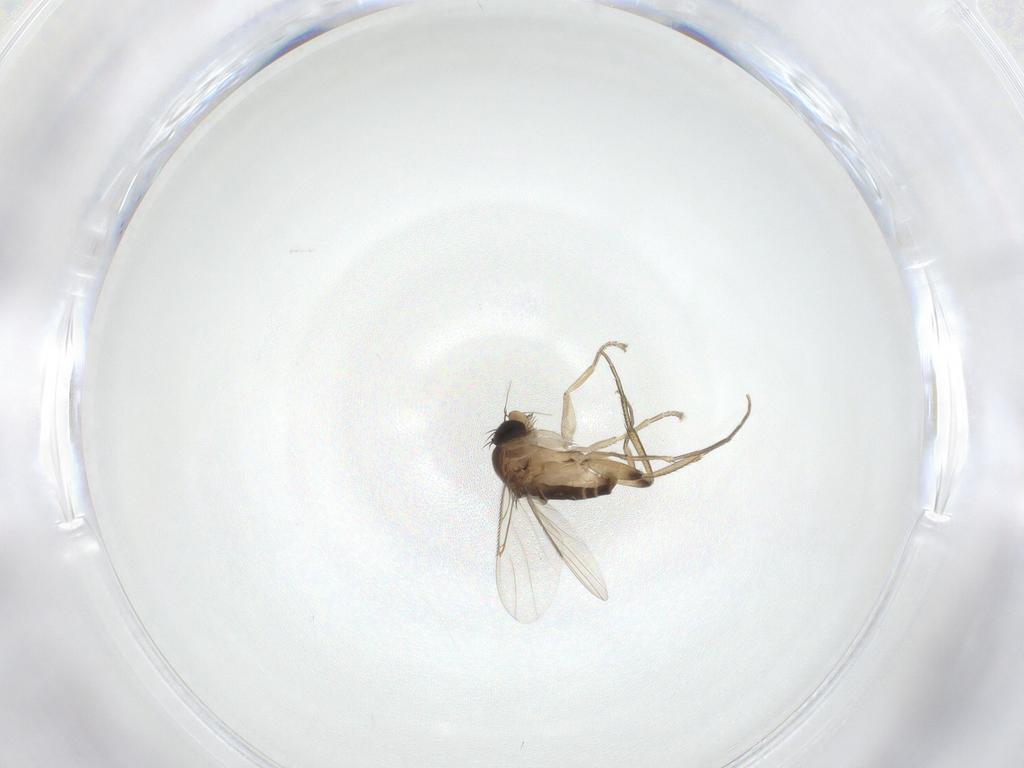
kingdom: Animalia
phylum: Arthropoda
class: Insecta
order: Diptera
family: Phoridae
